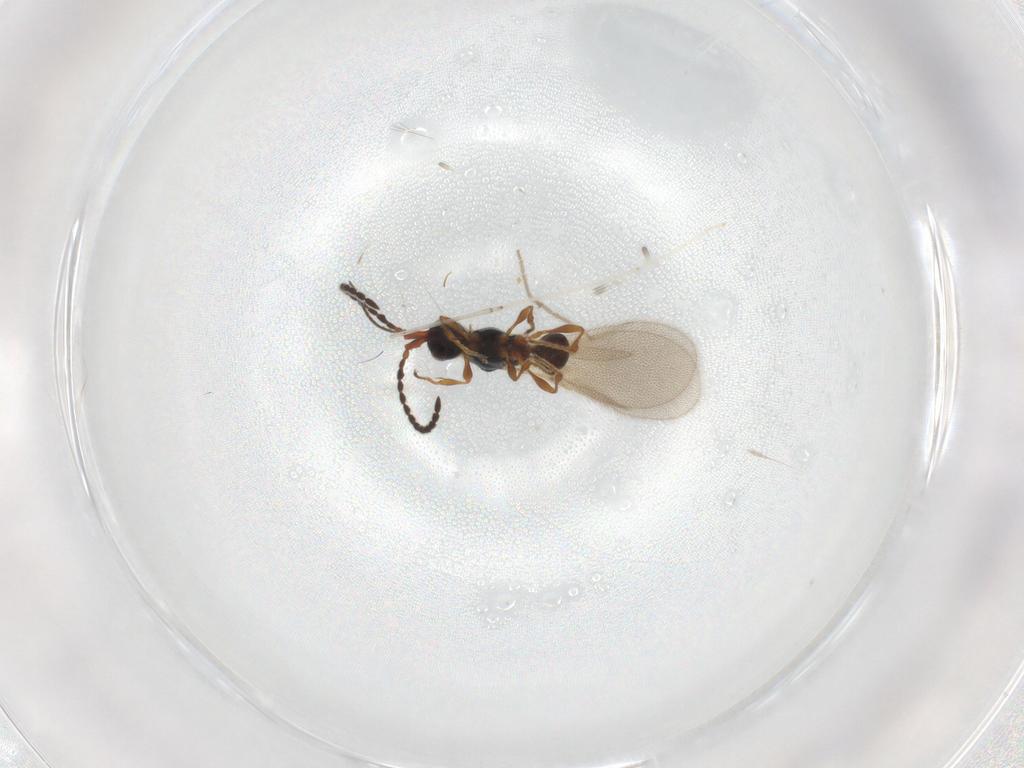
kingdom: Animalia
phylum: Arthropoda
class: Insecta
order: Hymenoptera
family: Diapriidae
